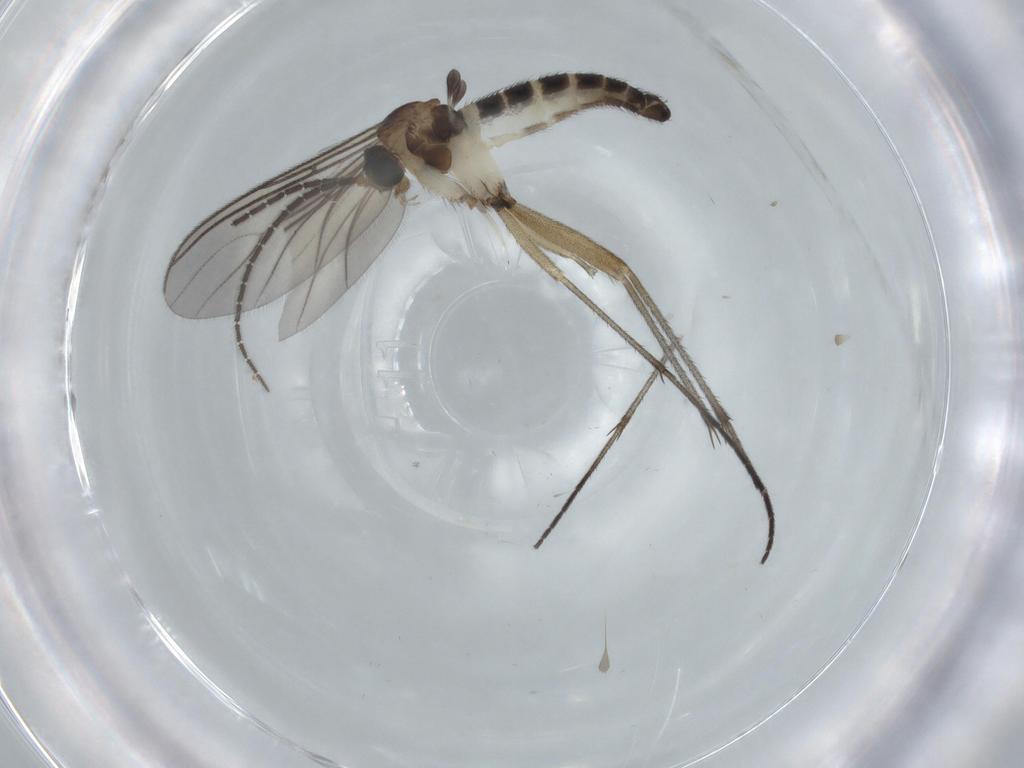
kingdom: Animalia
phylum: Arthropoda
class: Insecta
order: Diptera
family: Sciaridae
